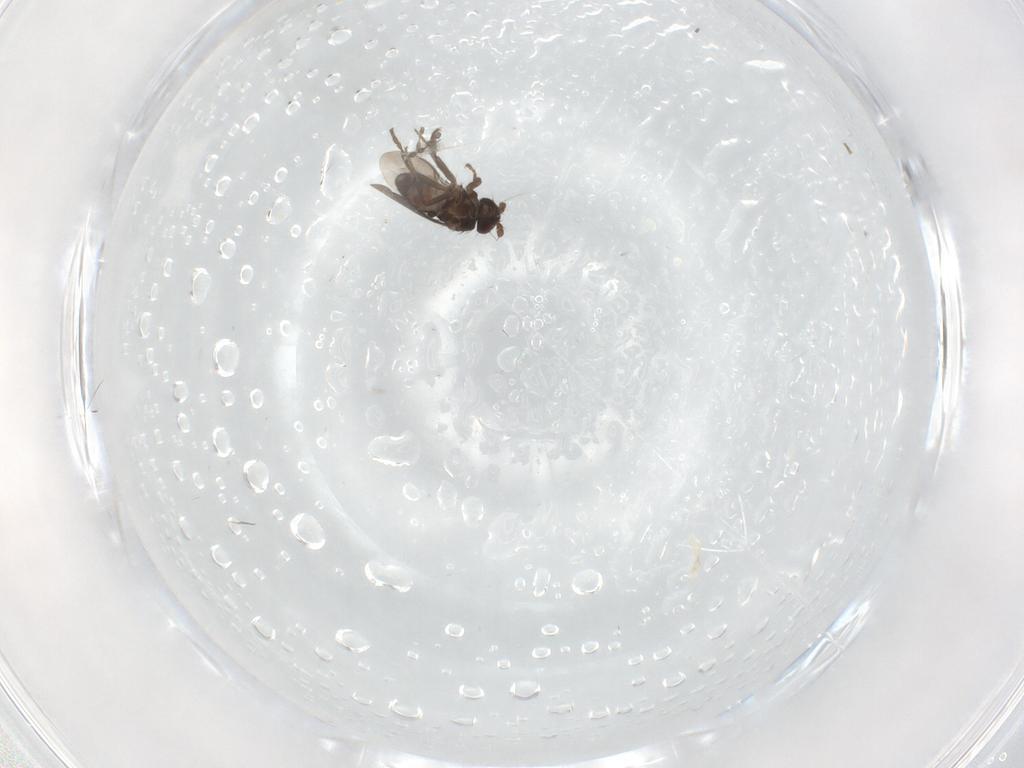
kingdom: Animalia
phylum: Arthropoda
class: Insecta
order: Diptera
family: Sphaeroceridae
